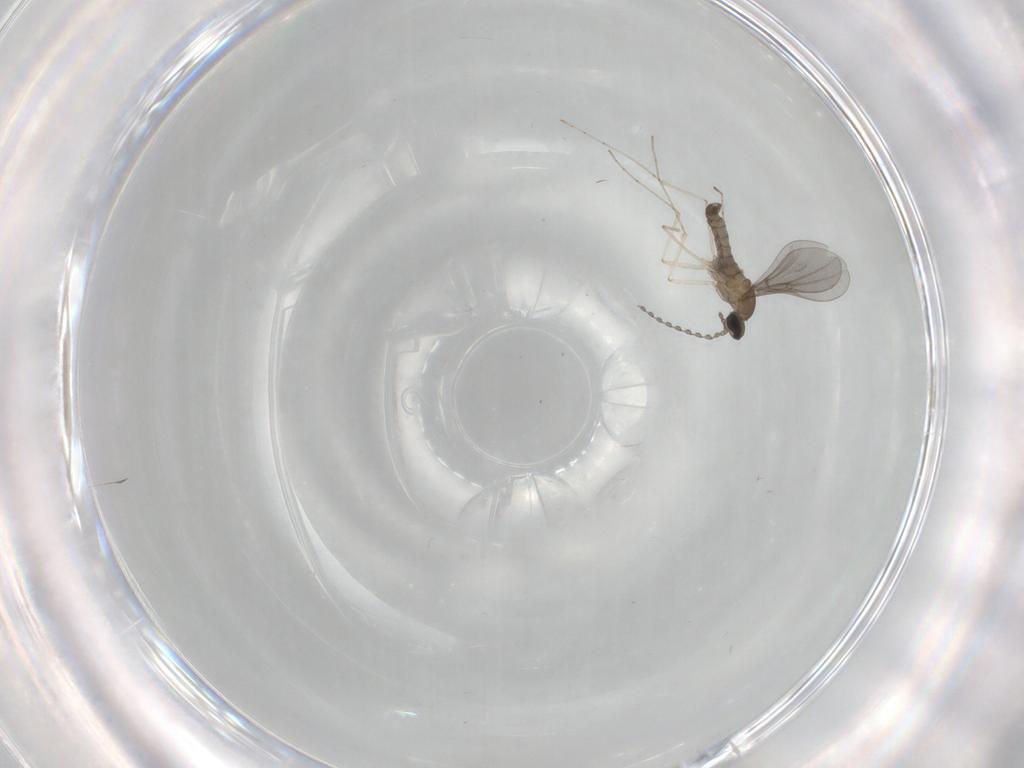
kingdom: Animalia
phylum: Arthropoda
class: Insecta
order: Diptera
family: Cecidomyiidae
